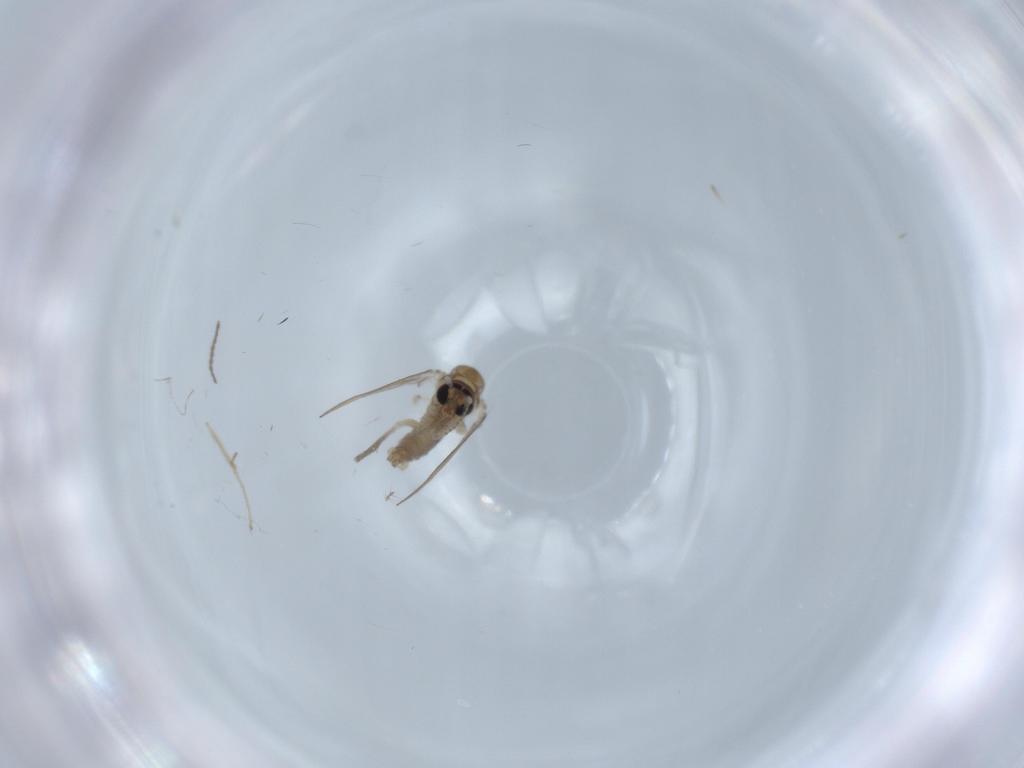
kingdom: Animalia
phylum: Arthropoda
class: Insecta
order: Diptera
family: Psychodidae
